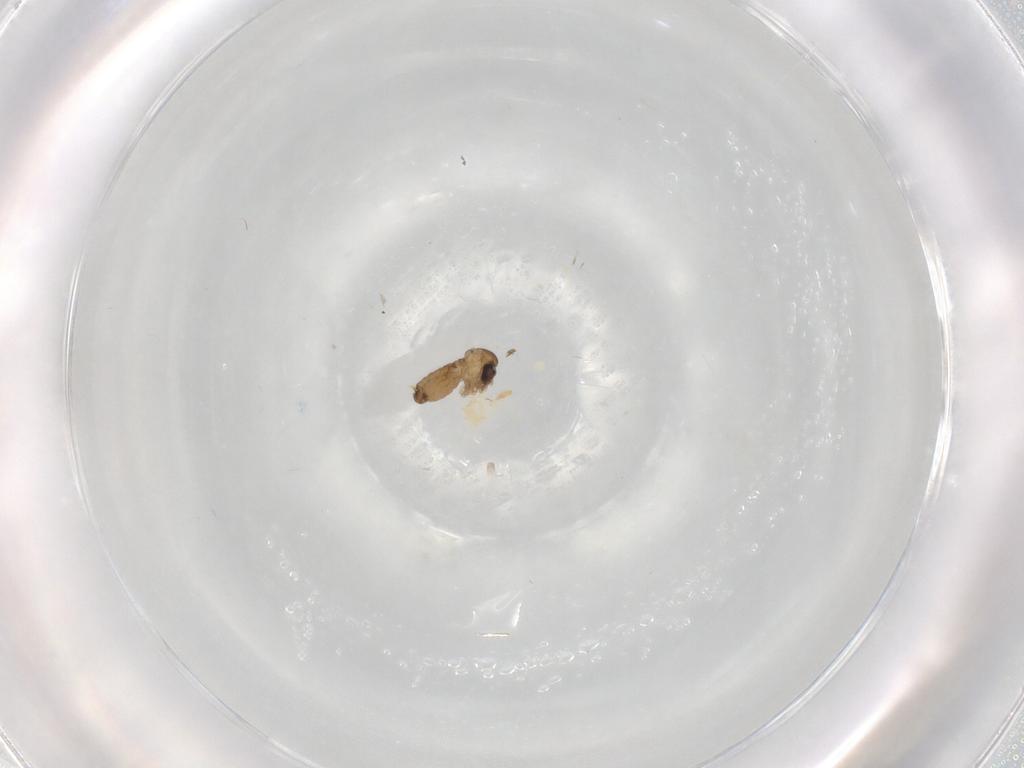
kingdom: Animalia
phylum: Arthropoda
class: Insecta
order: Diptera
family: Psychodidae
